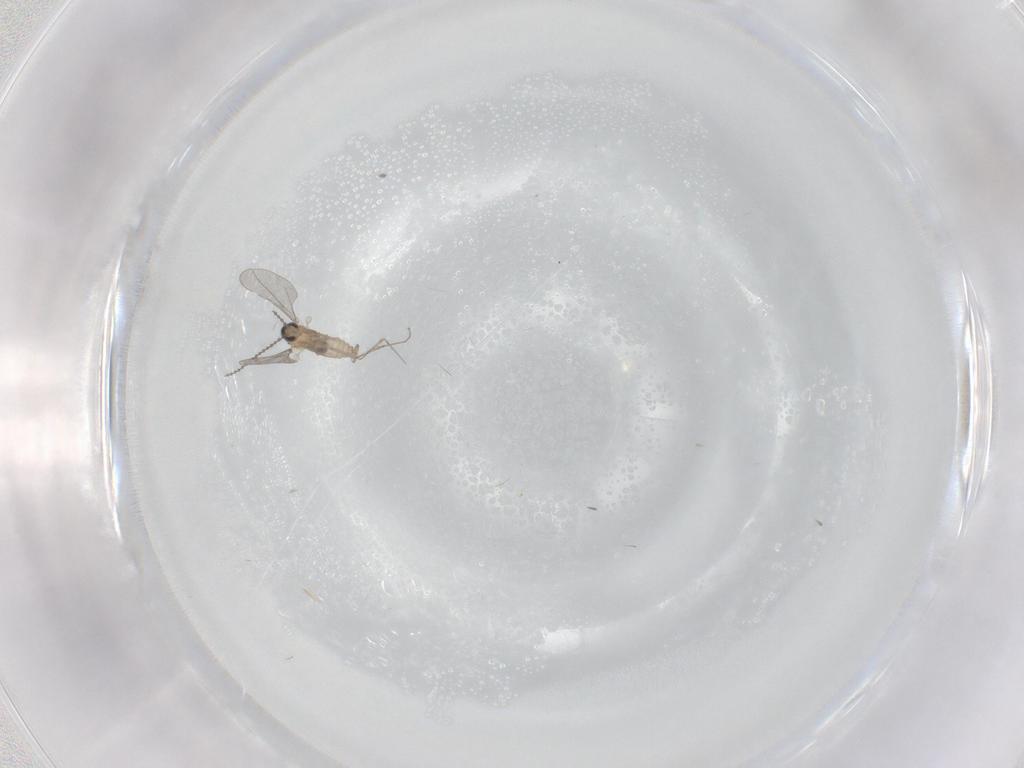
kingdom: Animalia
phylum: Arthropoda
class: Insecta
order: Diptera
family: Cecidomyiidae
